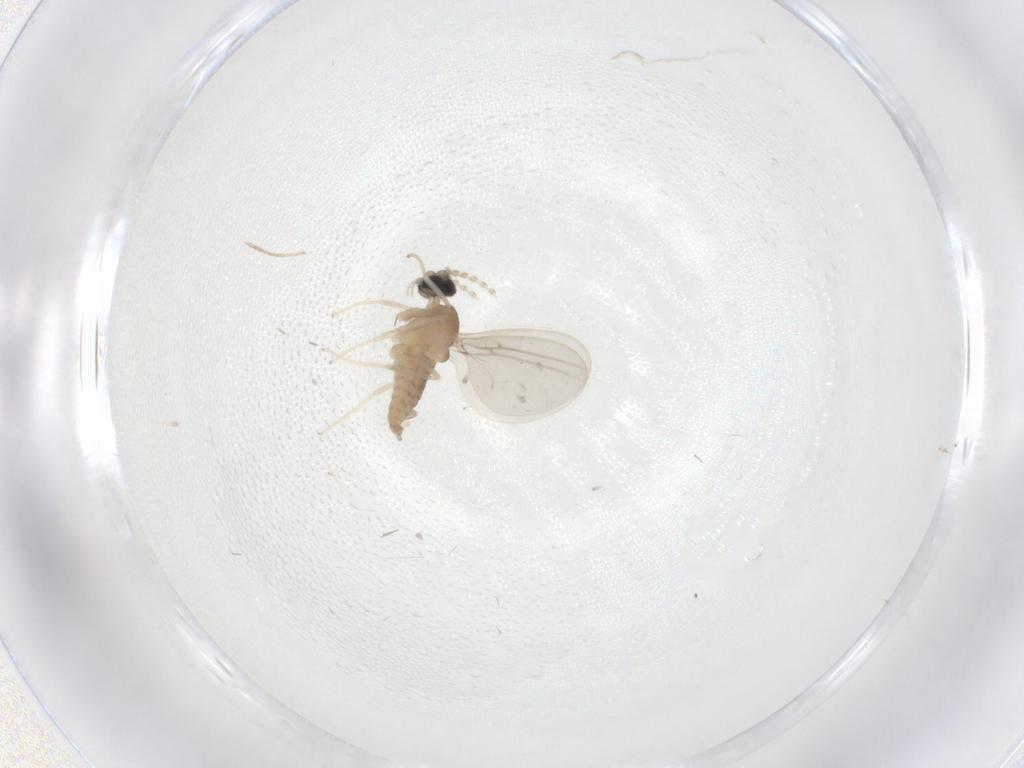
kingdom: Animalia
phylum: Arthropoda
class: Insecta
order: Diptera
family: Cecidomyiidae
